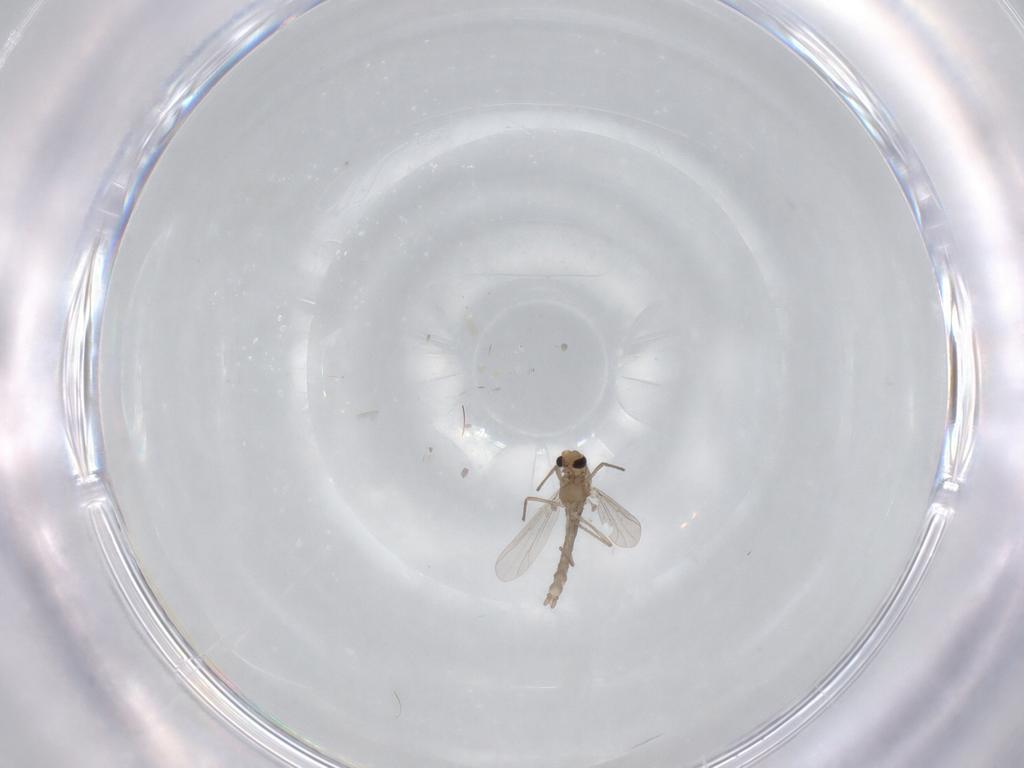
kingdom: Animalia
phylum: Arthropoda
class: Insecta
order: Diptera
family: Chironomidae
